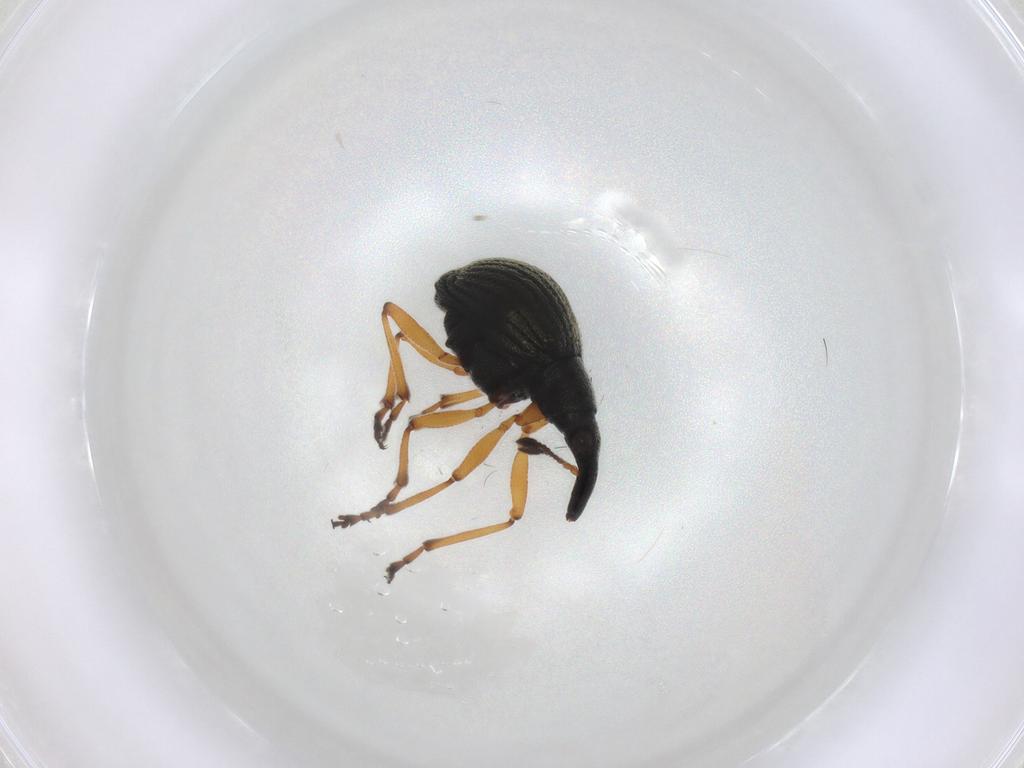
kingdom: Animalia
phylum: Arthropoda
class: Insecta
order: Coleoptera
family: Brentidae
